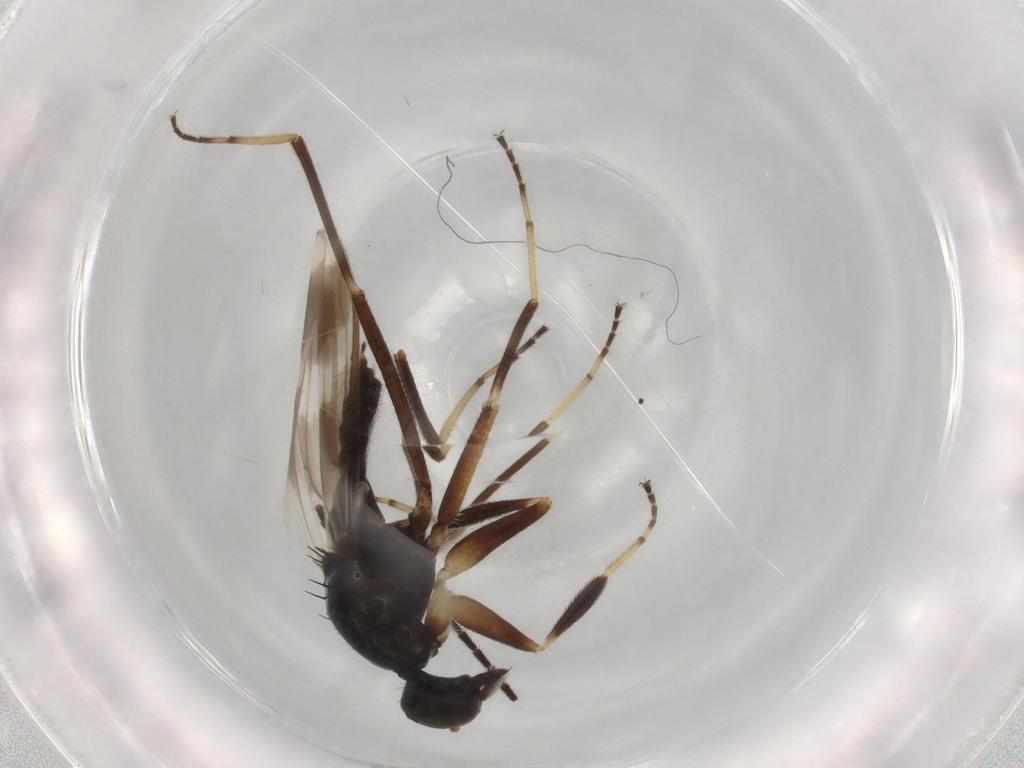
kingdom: Animalia
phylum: Arthropoda
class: Insecta
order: Diptera
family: Hybotidae
